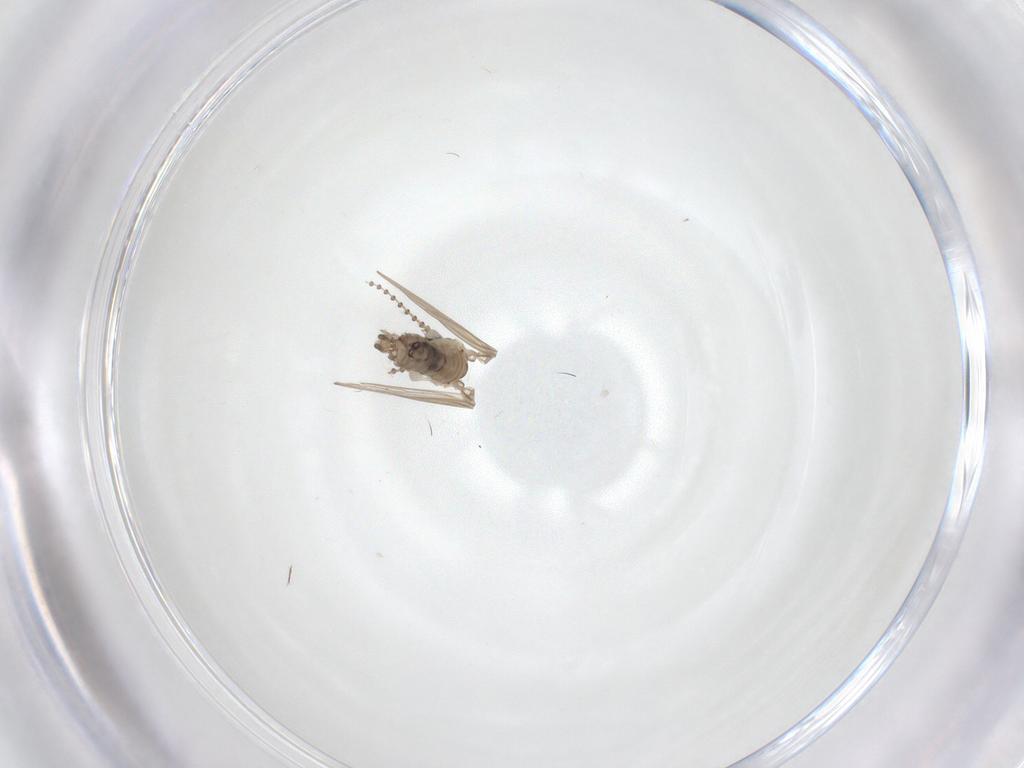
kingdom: Animalia
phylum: Arthropoda
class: Insecta
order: Diptera
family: Psychodidae
